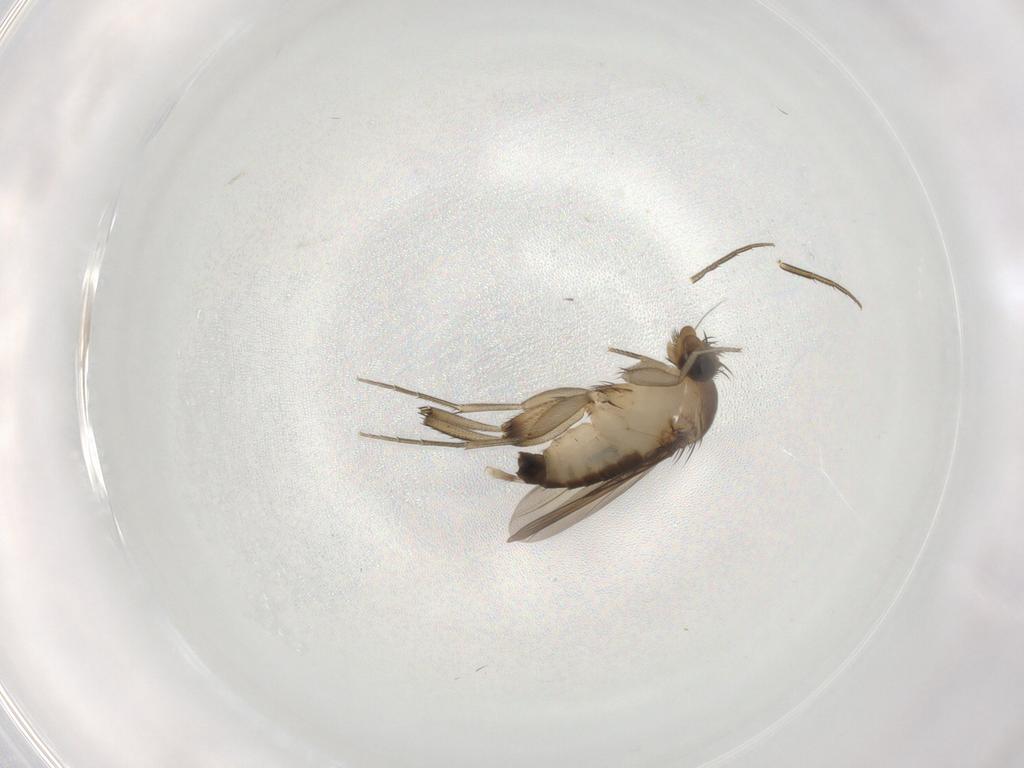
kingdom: Animalia
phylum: Arthropoda
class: Insecta
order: Diptera
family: Phoridae
